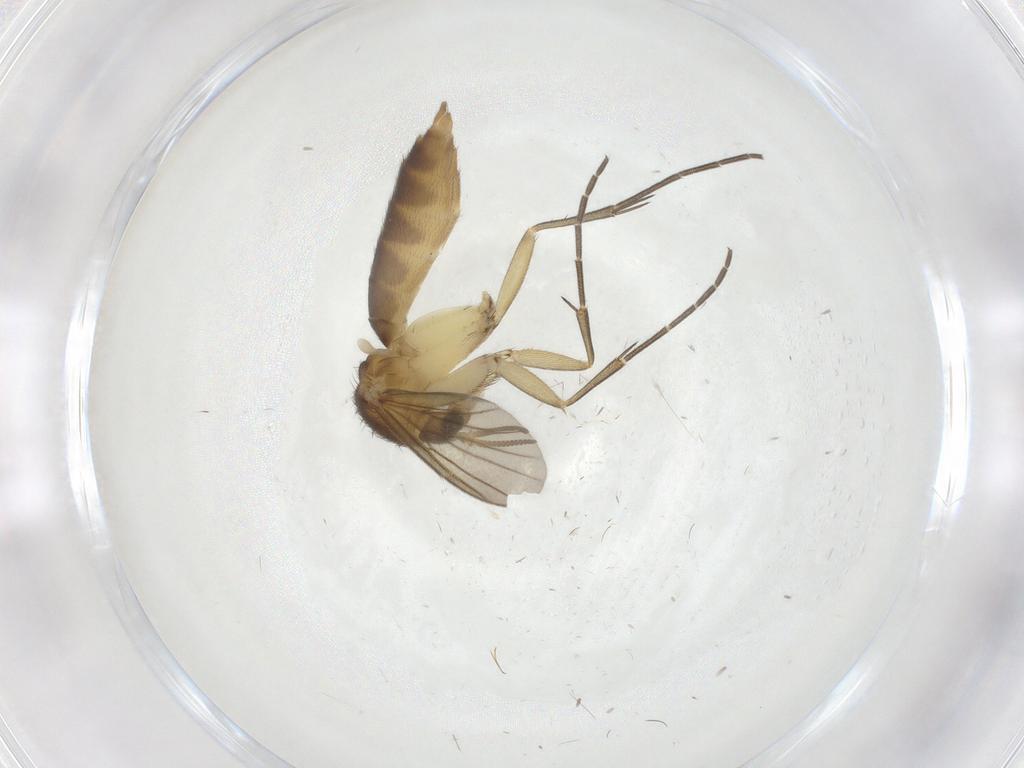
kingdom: Animalia
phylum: Arthropoda
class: Insecta
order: Diptera
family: Mycetophilidae
